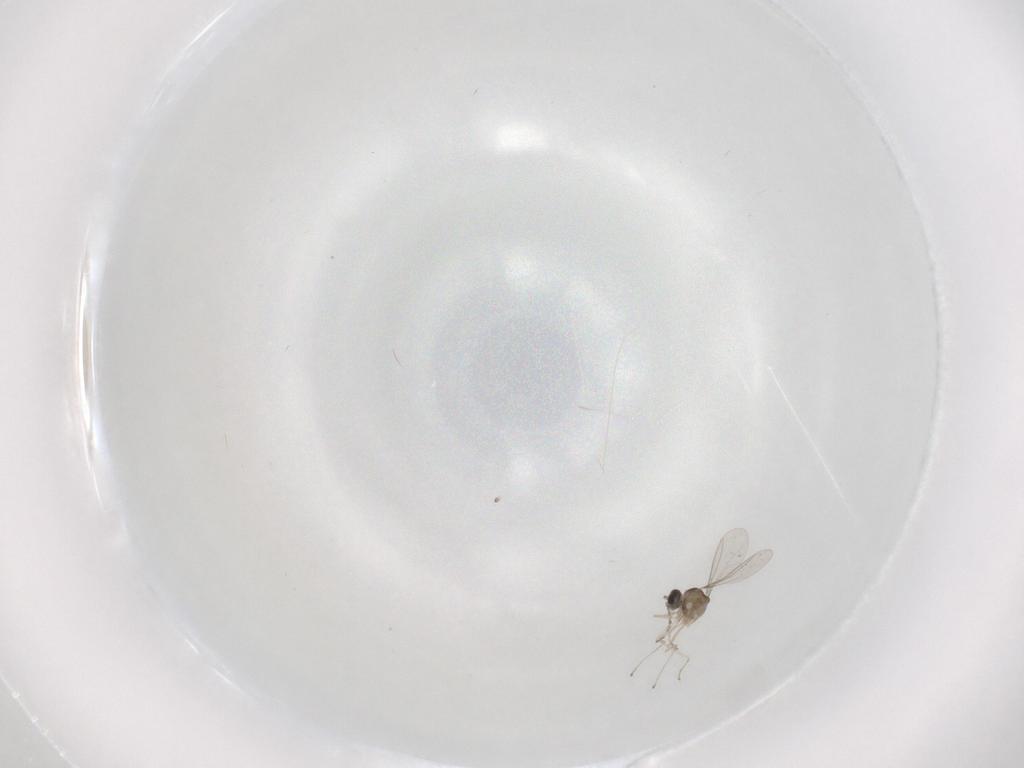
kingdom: Animalia
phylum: Arthropoda
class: Insecta
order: Diptera
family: Cecidomyiidae
